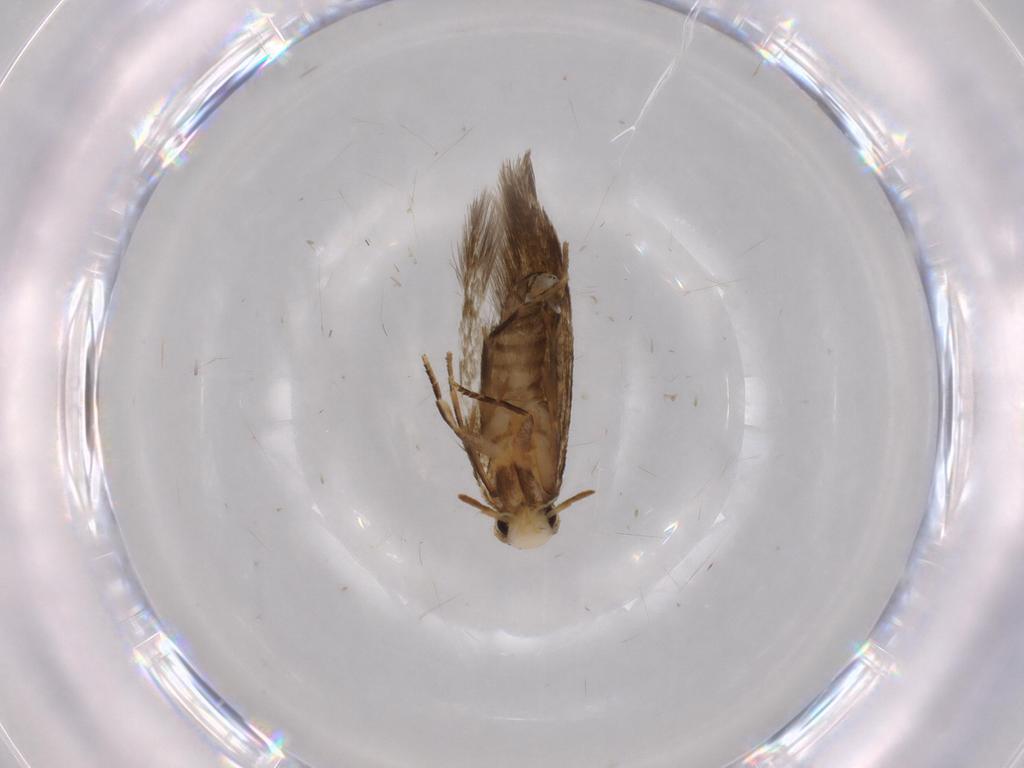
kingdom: Animalia
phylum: Arthropoda
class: Insecta
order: Lepidoptera
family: Tineidae
